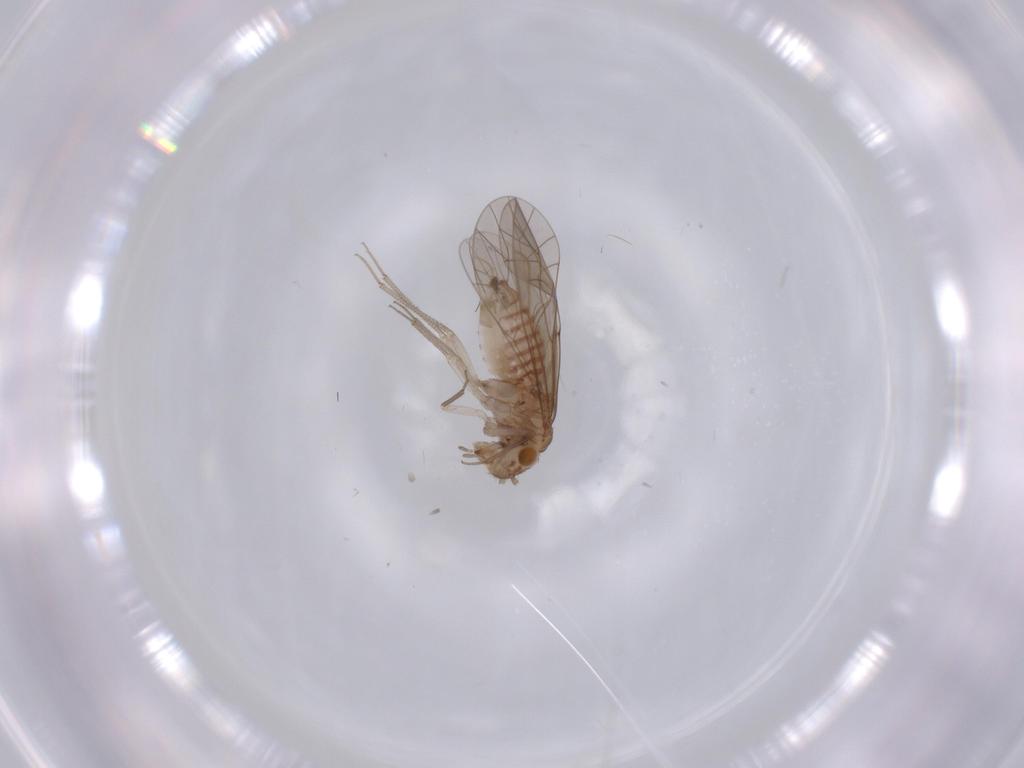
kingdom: Animalia
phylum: Arthropoda
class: Insecta
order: Psocodea
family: Lachesillidae
